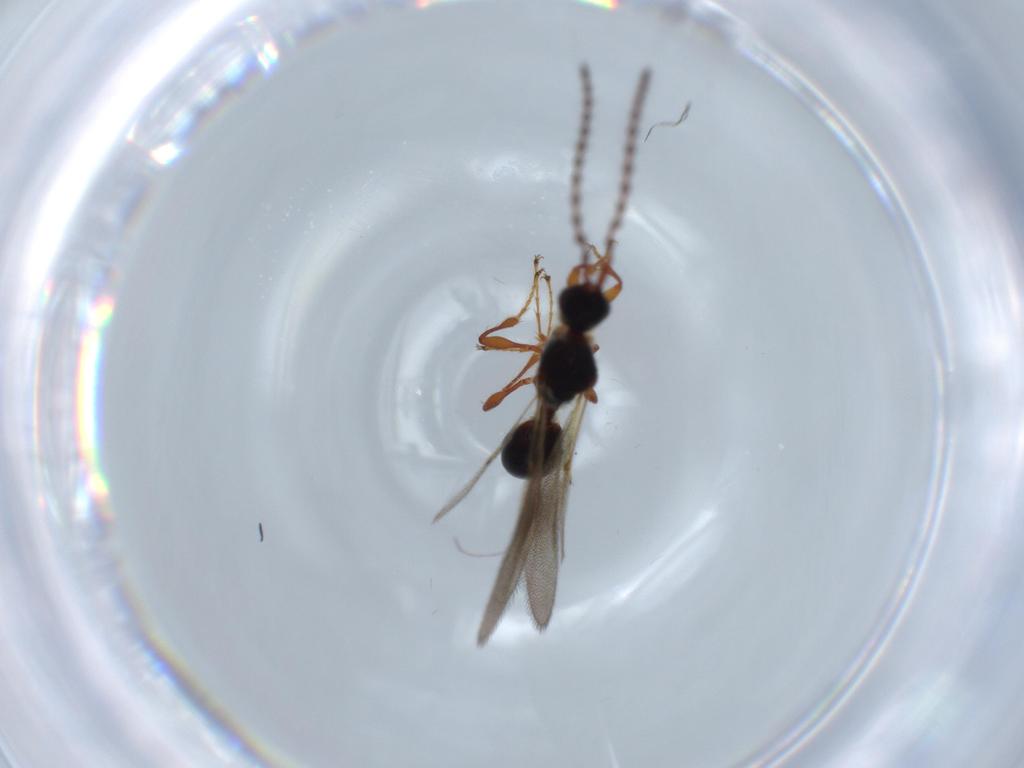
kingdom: Animalia
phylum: Arthropoda
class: Insecta
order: Hymenoptera
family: Diapriidae
